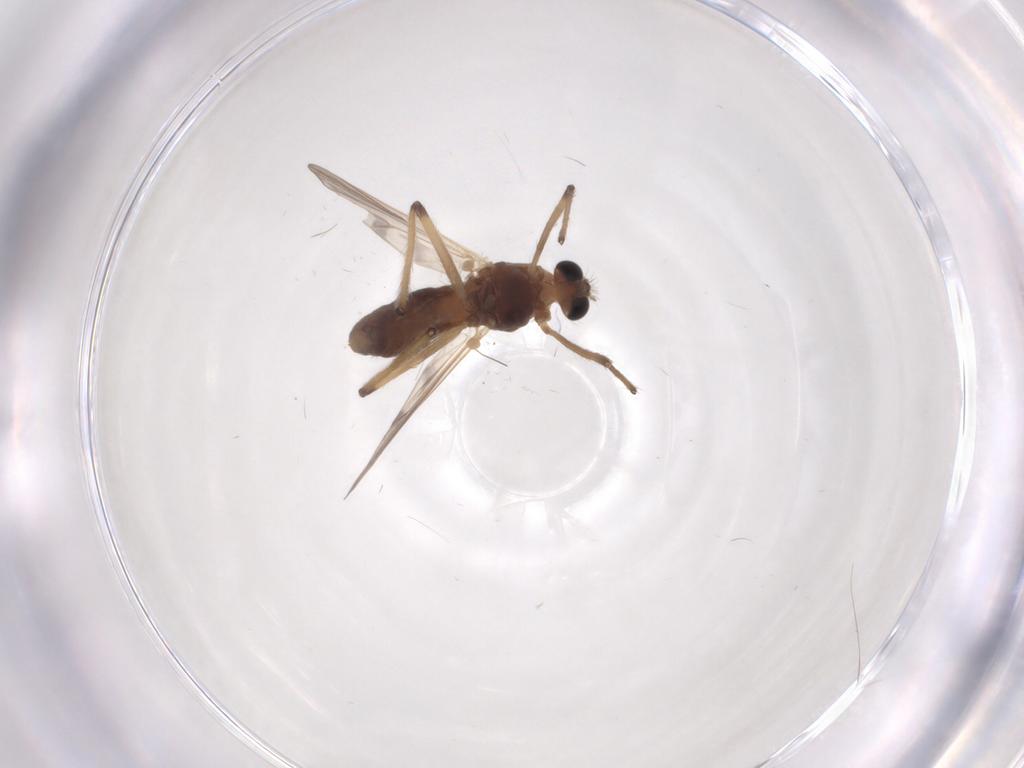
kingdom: Animalia
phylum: Arthropoda
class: Insecta
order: Diptera
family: Chironomidae
